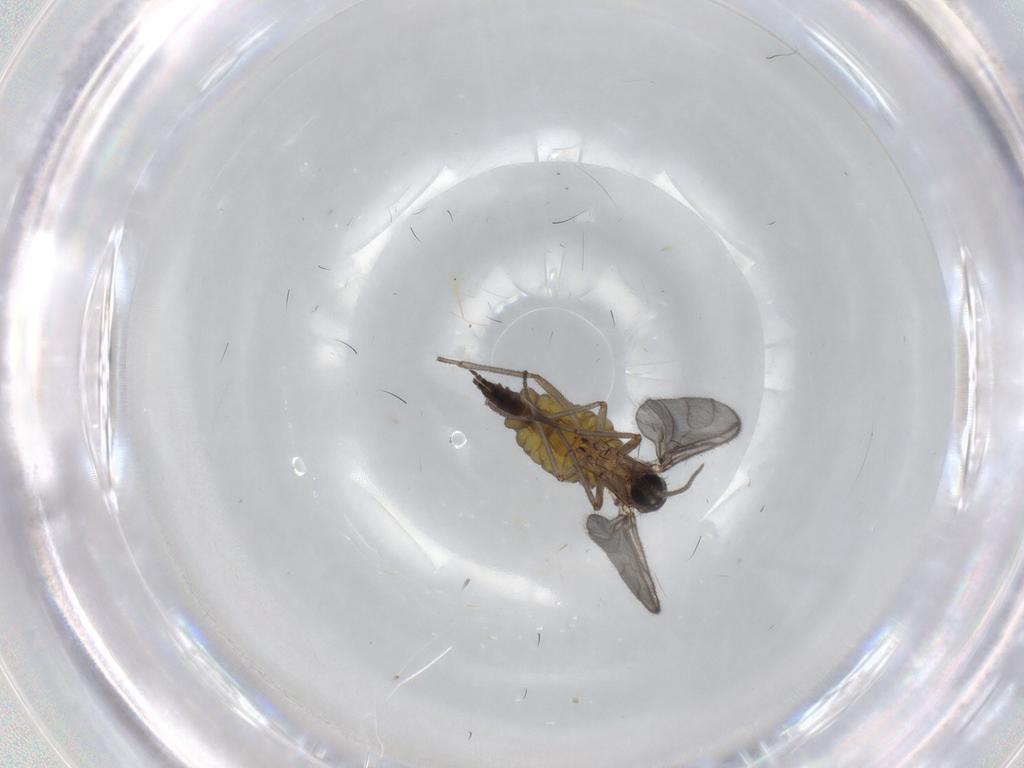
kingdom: Animalia
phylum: Arthropoda
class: Insecta
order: Diptera
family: Sciaridae
